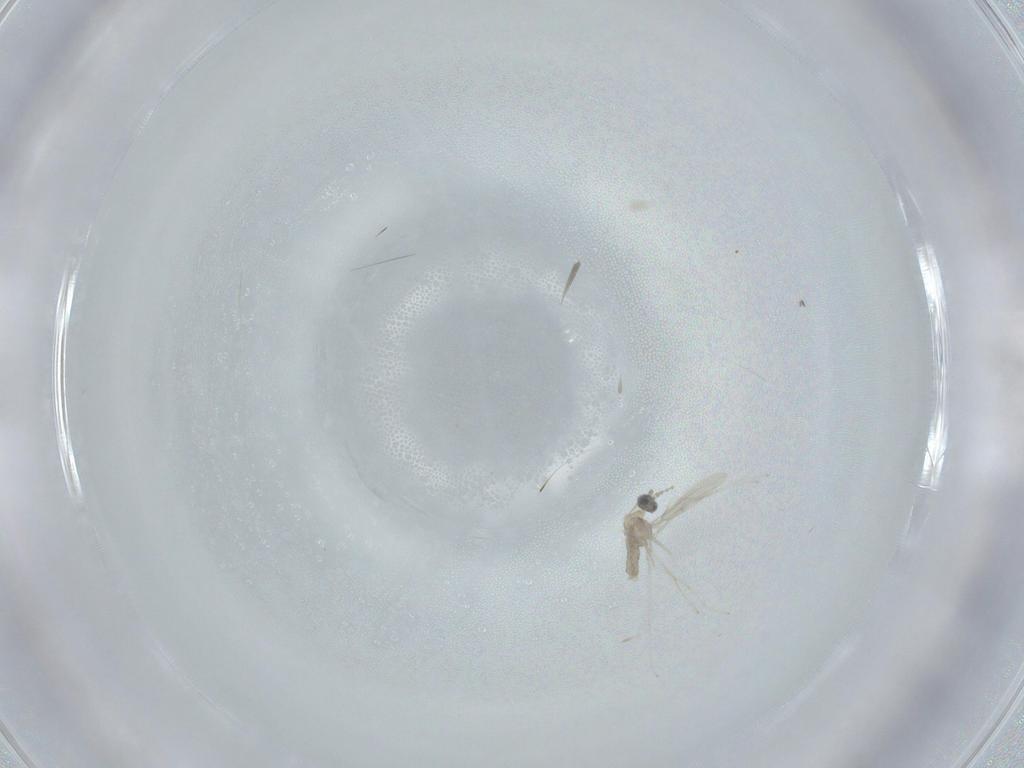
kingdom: Animalia
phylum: Arthropoda
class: Insecta
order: Diptera
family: Cecidomyiidae
